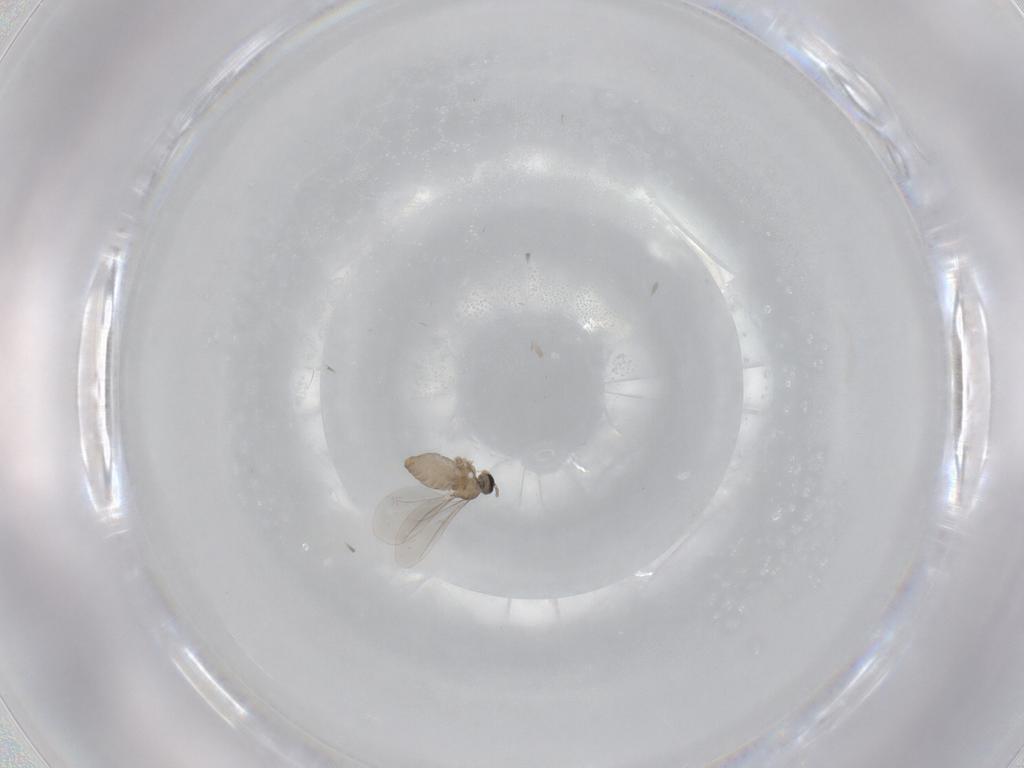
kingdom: Animalia
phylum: Arthropoda
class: Insecta
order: Diptera
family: Cecidomyiidae
